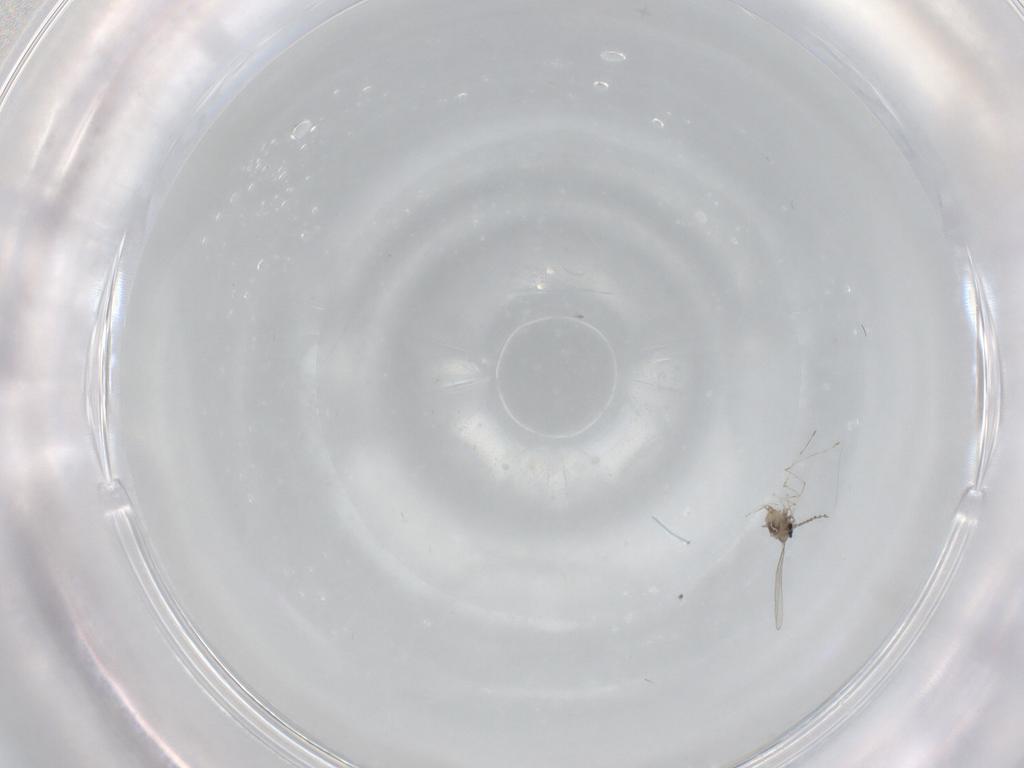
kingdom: Animalia
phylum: Arthropoda
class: Insecta
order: Diptera
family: Cecidomyiidae
